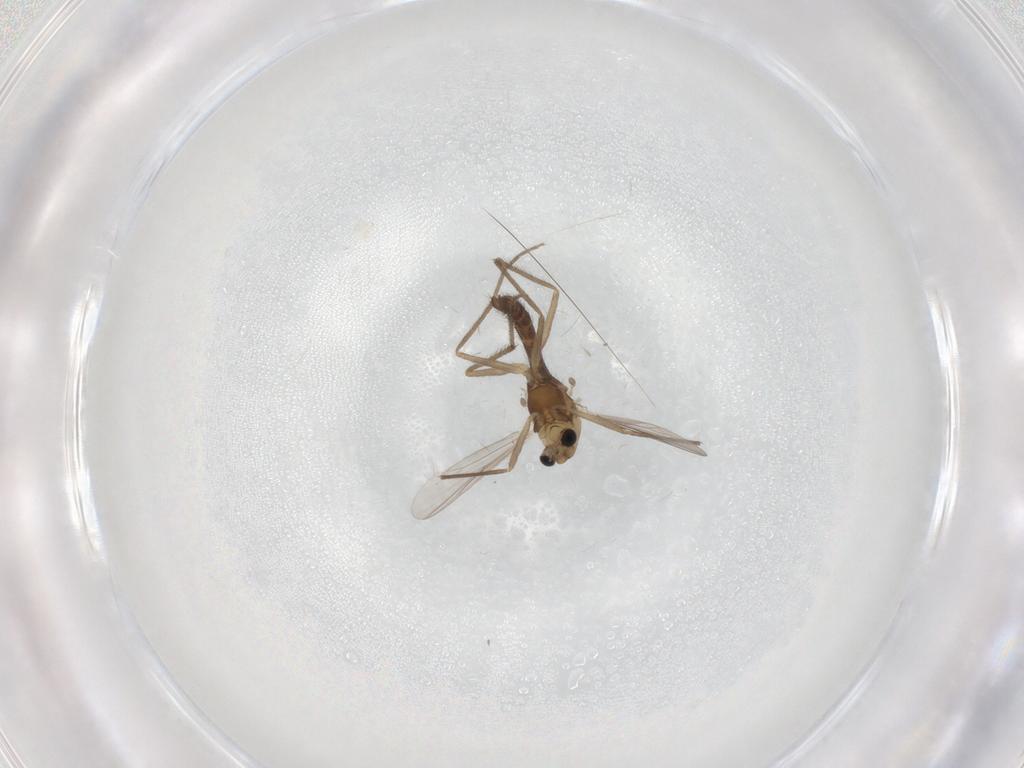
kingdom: Animalia
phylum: Arthropoda
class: Insecta
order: Diptera
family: Chironomidae
